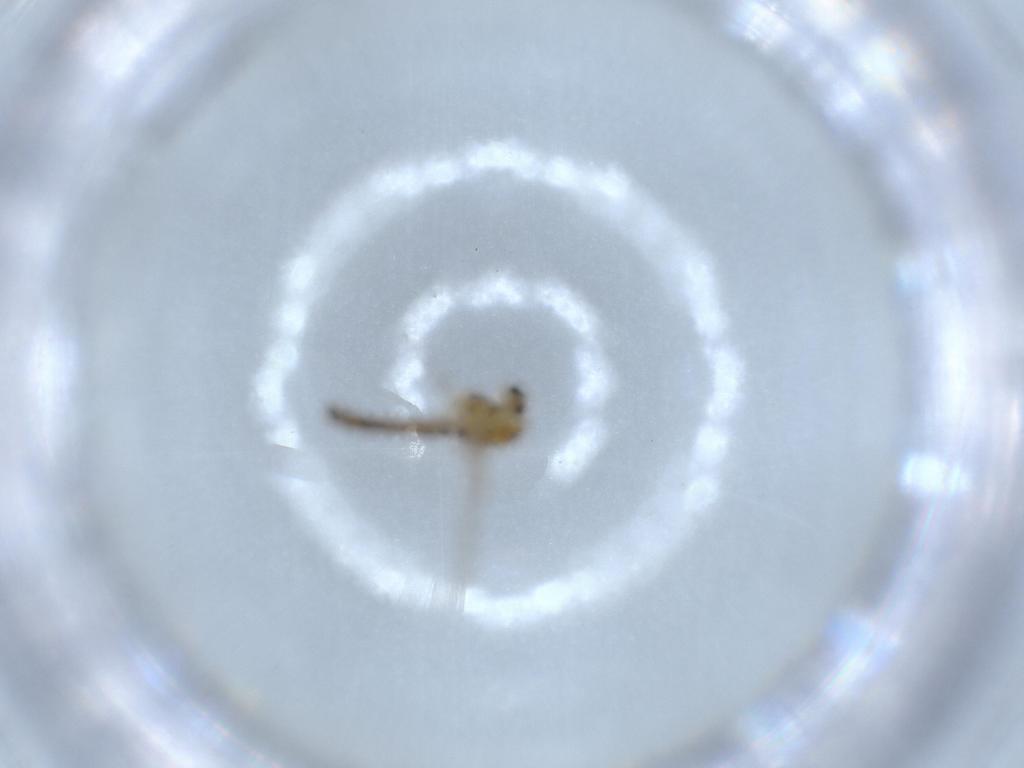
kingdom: Animalia
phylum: Arthropoda
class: Insecta
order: Diptera
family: Chironomidae
